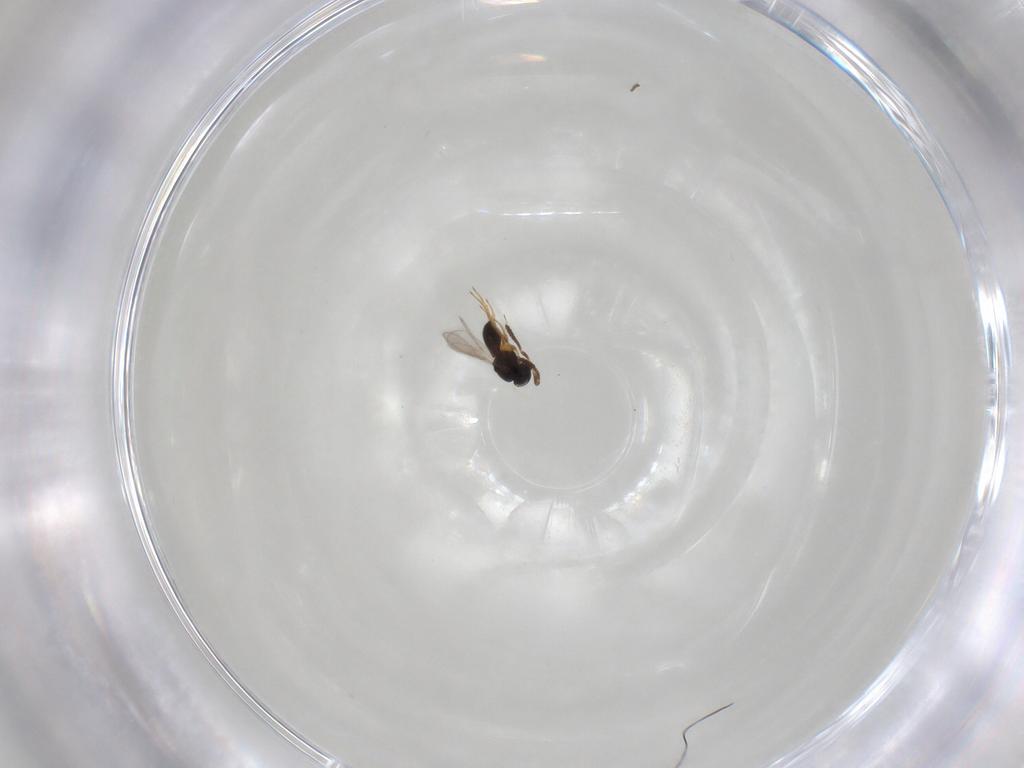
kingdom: Animalia
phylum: Arthropoda
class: Insecta
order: Hymenoptera
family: Scelionidae
